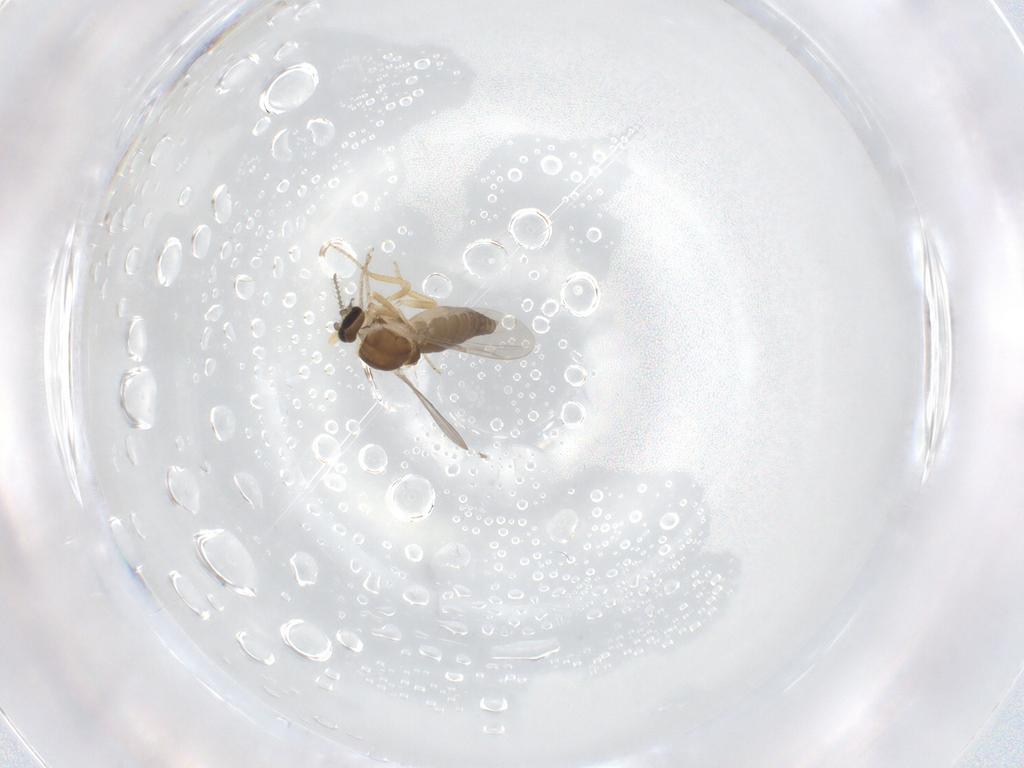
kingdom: Animalia
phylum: Arthropoda
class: Insecta
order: Diptera
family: Ceratopogonidae
